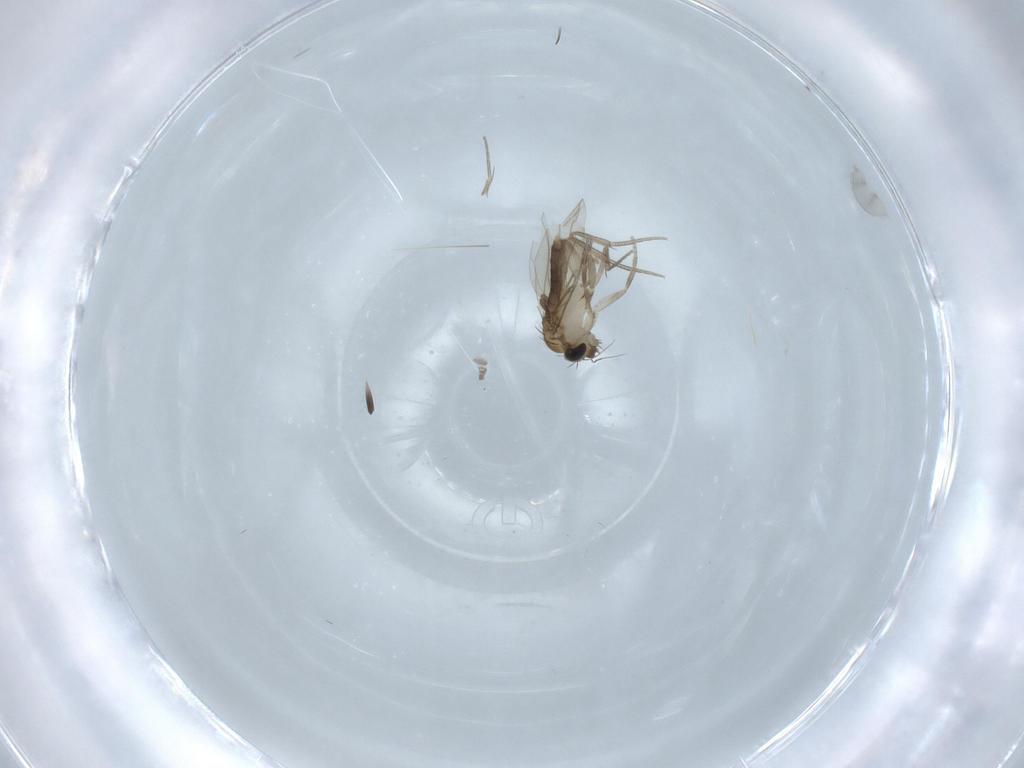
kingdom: Animalia
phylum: Arthropoda
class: Insecta
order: Diptera
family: Phoridae
